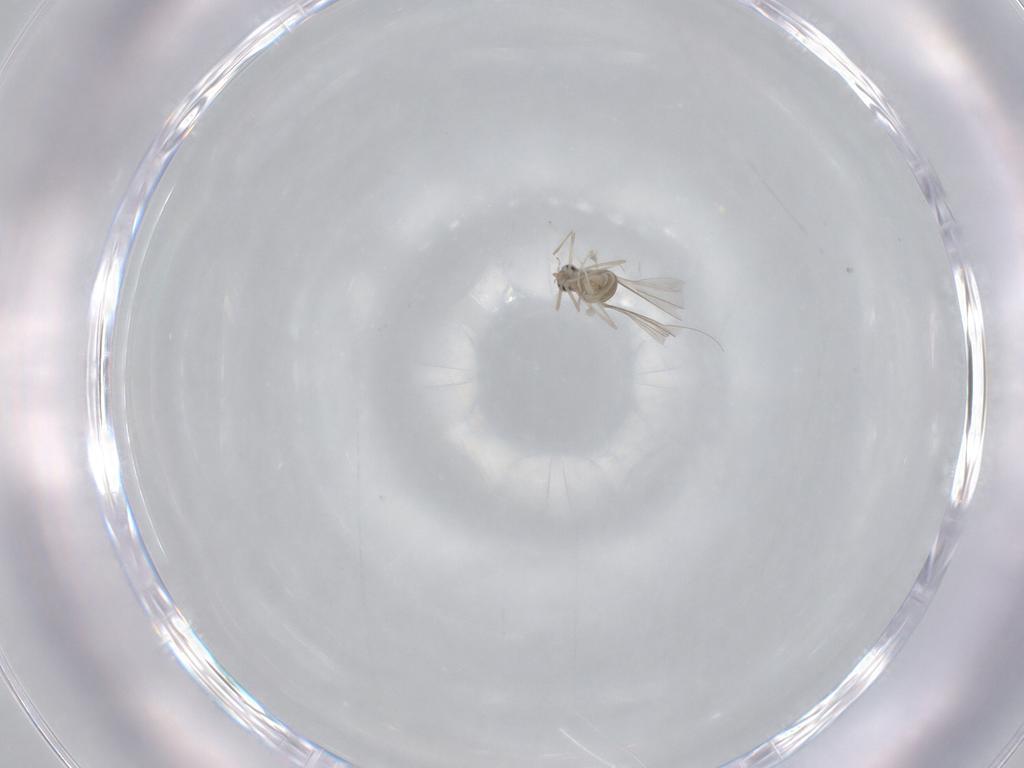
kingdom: Animalia
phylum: Arthropoda
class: Insecta
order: Diptera
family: Cecidomyiidae
